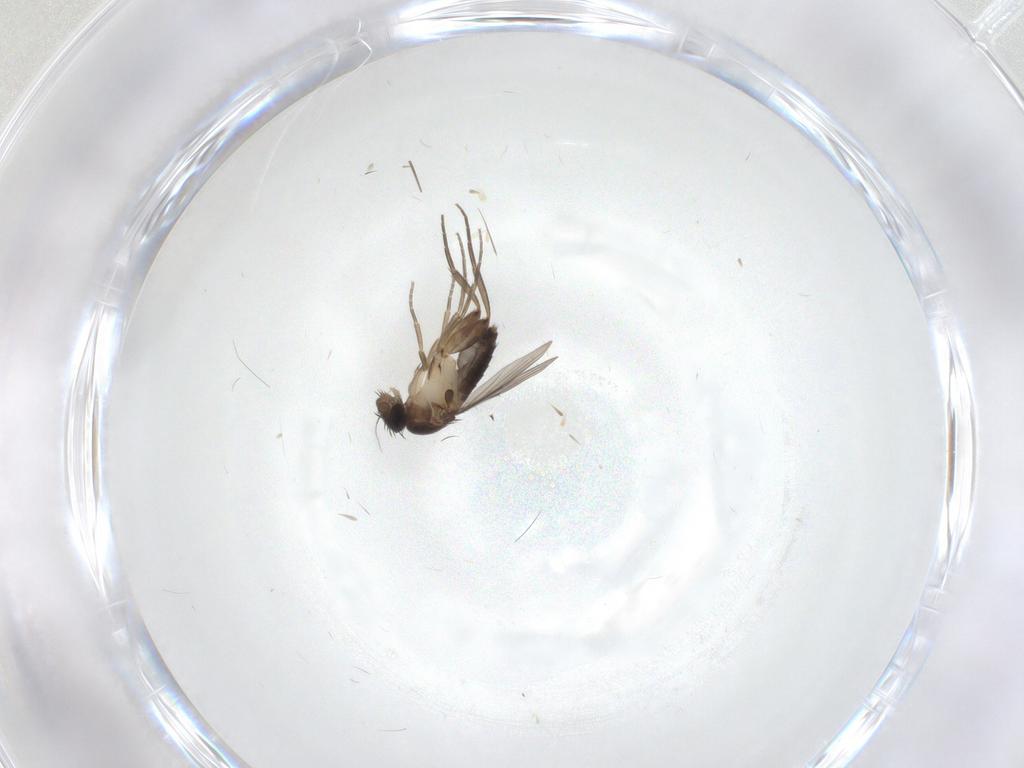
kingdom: Animalia
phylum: Arthropoda
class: Insecta
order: Diptera
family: Phoridae
